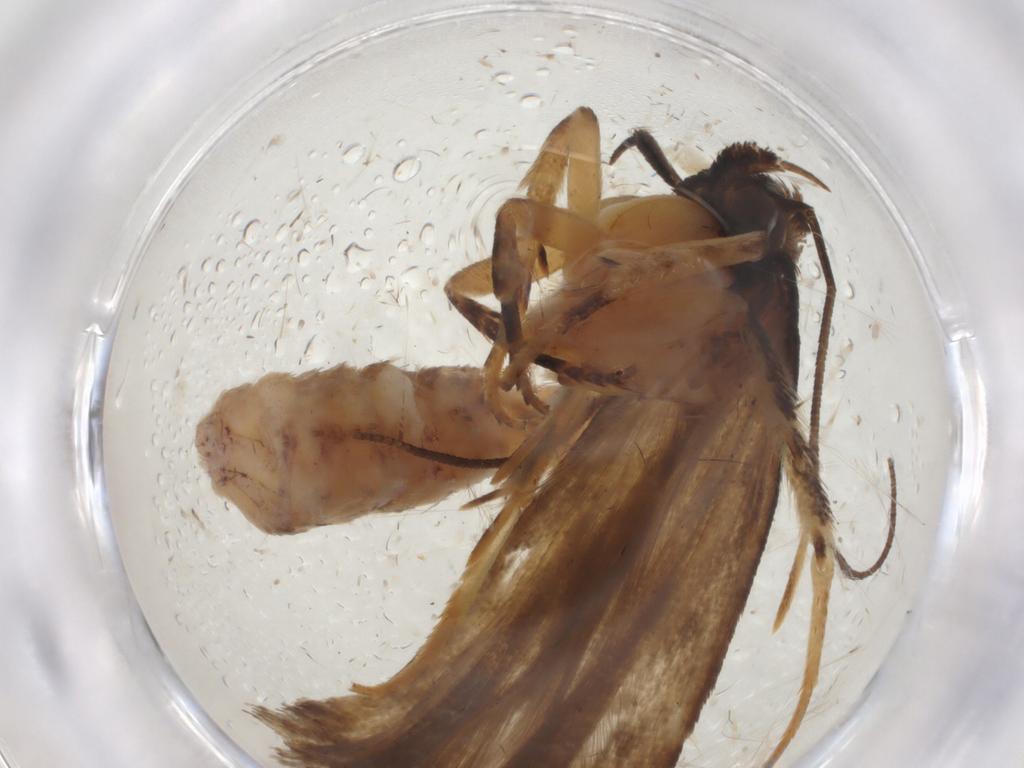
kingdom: Animalia
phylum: Arthropoda
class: Insecta
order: Lepidoptera
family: Gelechiidae
